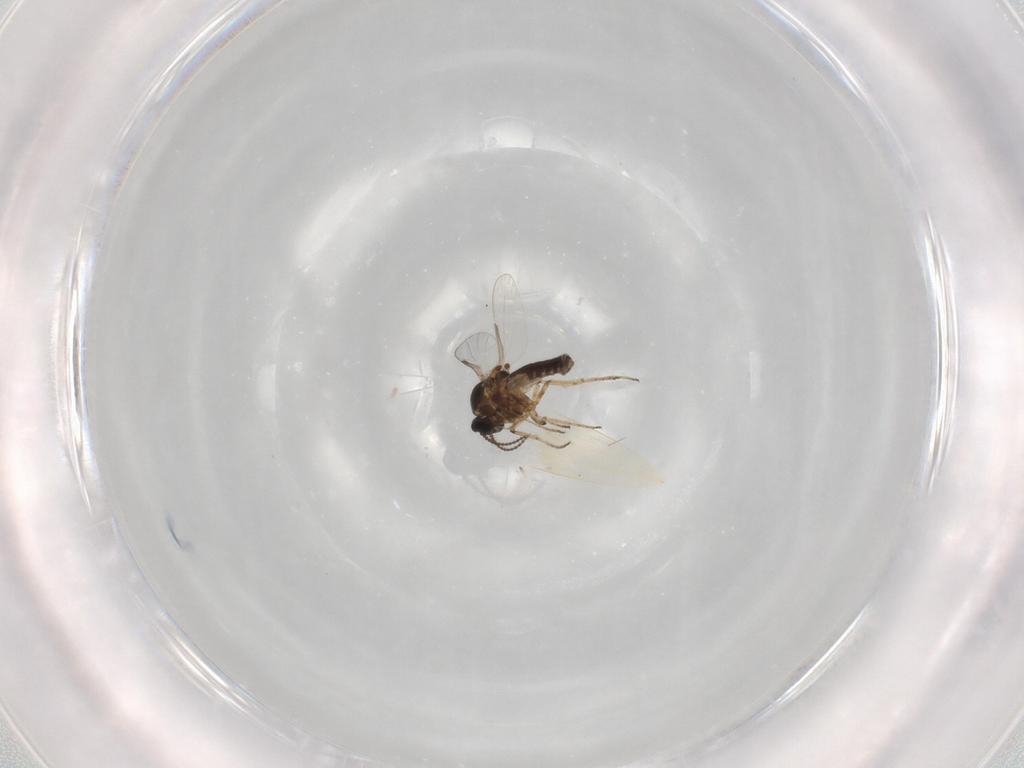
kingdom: Animalia
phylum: Arthropoda
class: Insecta
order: Diptera
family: Ceratopogonidae
